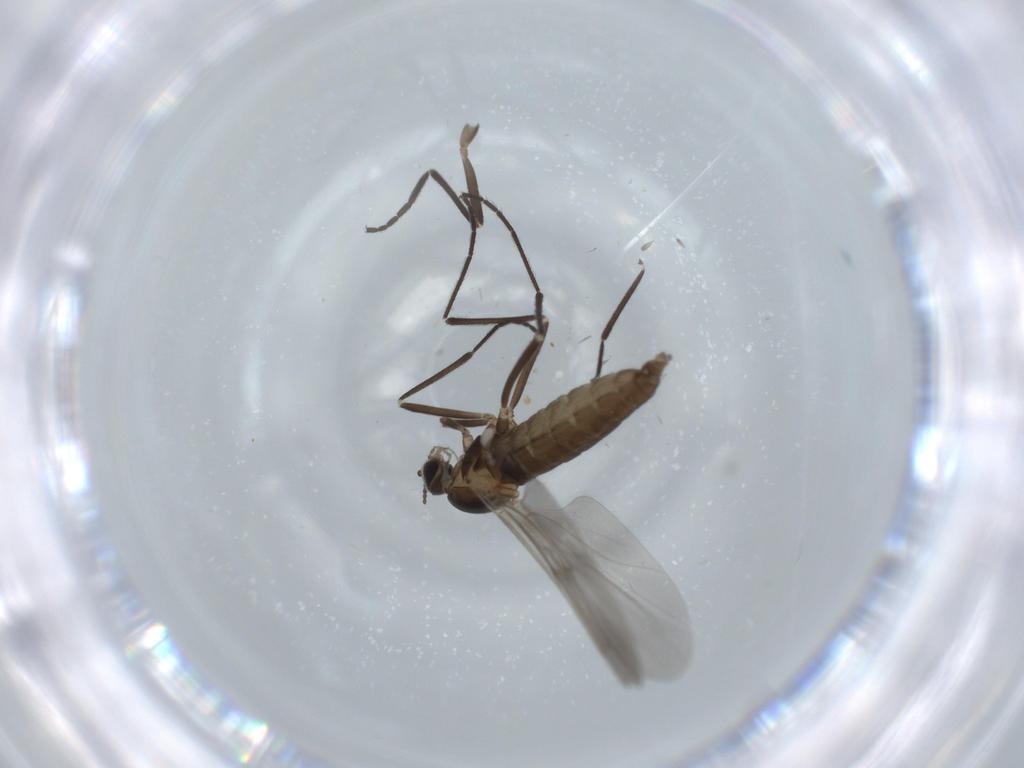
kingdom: Animalia
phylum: Arthropoda
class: Insecta
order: Diptera
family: Cecidomyiidae
